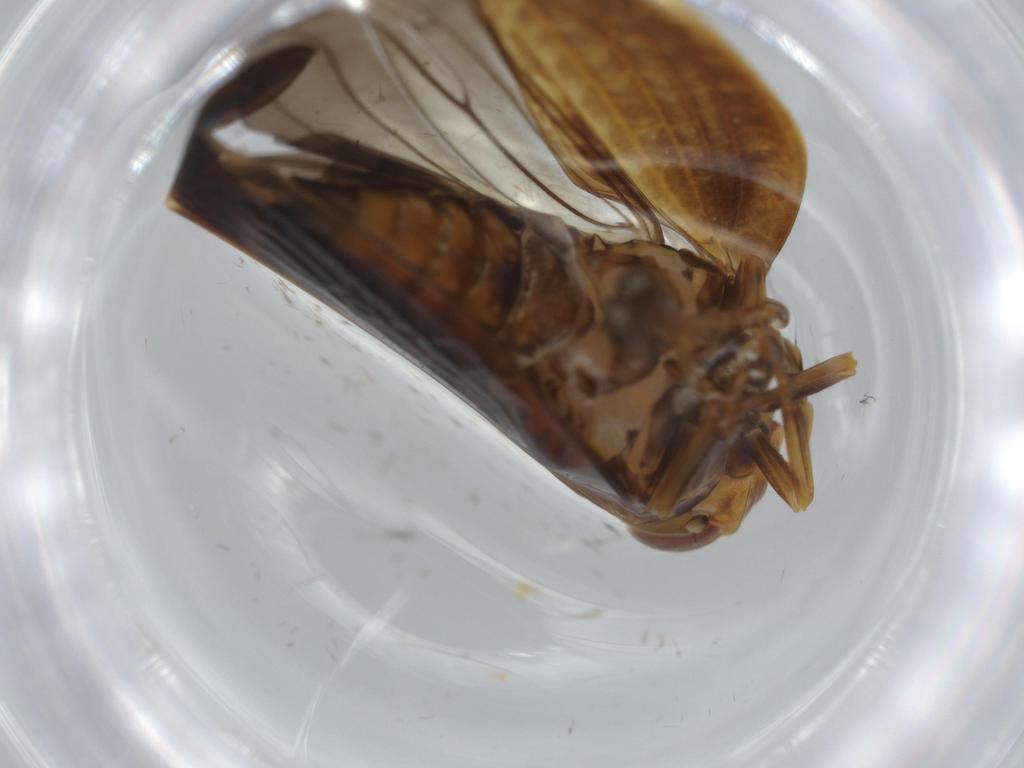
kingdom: Animalia
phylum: Arthropoda
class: Insecta
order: Hemiptera
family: Nogodinidae
